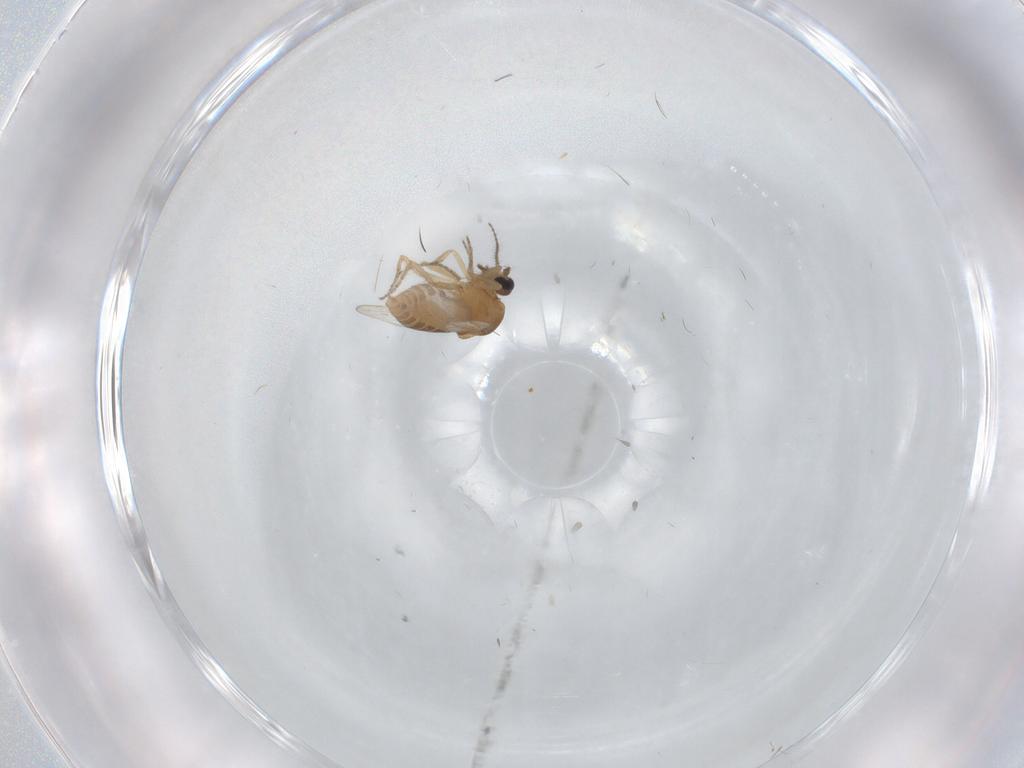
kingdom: Animalia
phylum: Arthropoda
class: Insecta
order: Diptera
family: Ceratopogonidae
